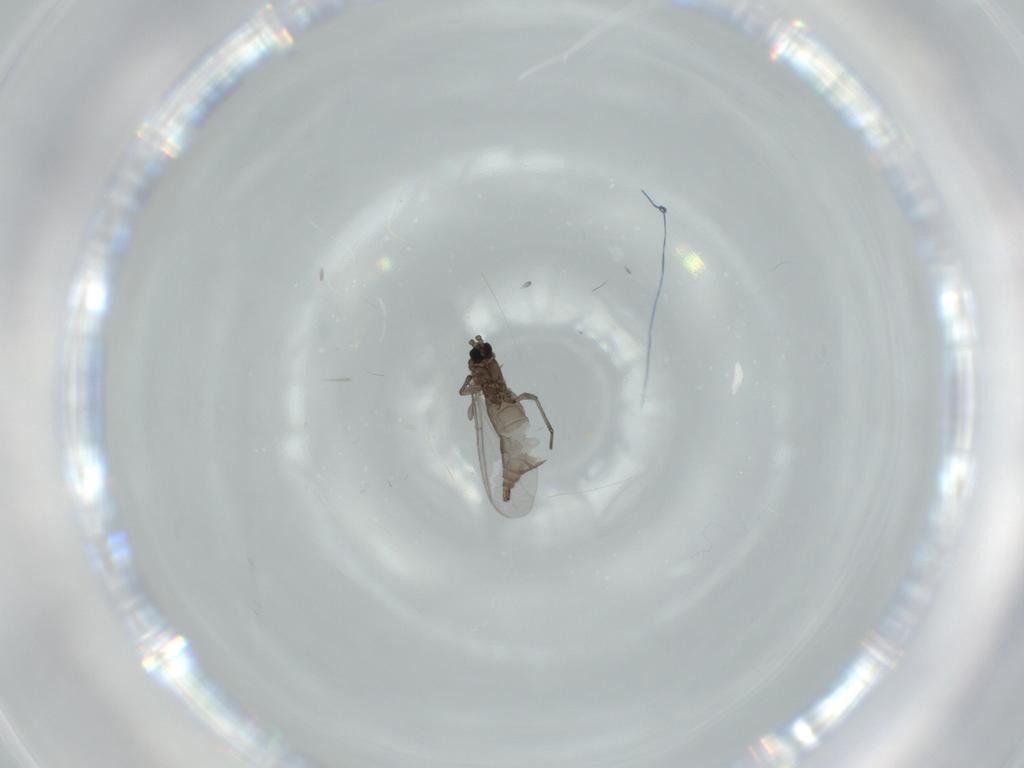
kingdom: Animalia
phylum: Arthropoda
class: Insecta
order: Diptera
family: Sciaridae
